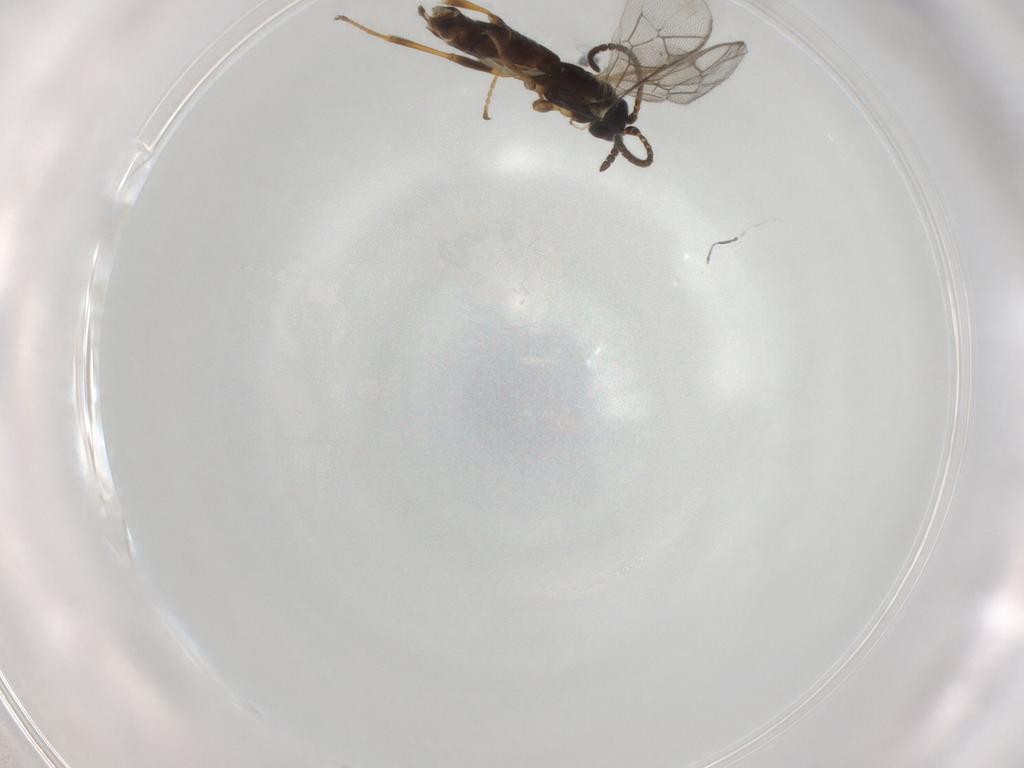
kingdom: Animalia
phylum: Arthropoda
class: Insecta
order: Hymenoptera
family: Ichneumonidae
